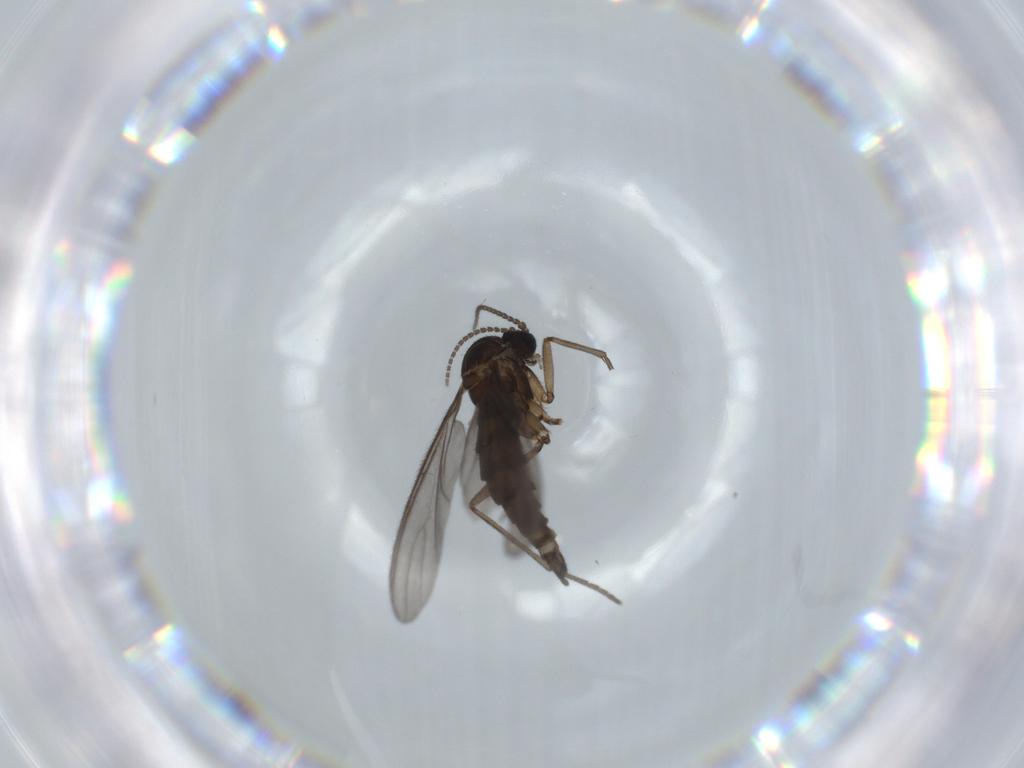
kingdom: Animalia
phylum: Arthropoda
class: Insecta
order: Diptera
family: Sciaridae
